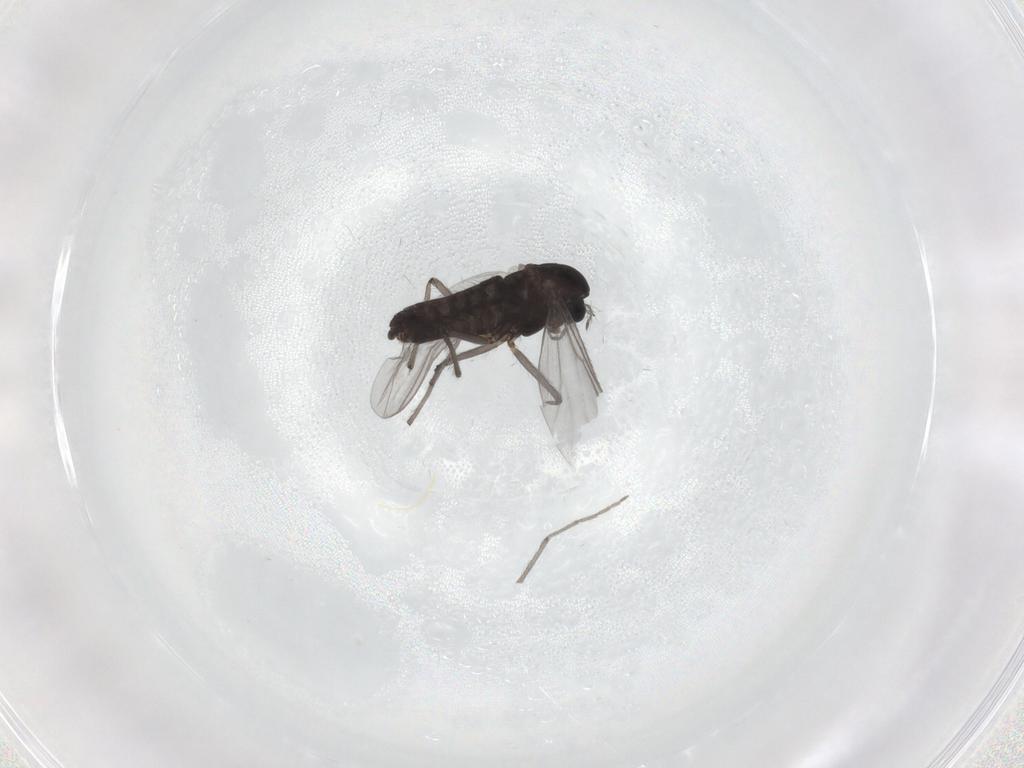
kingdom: Animalia
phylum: Arthropoda
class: Insecta
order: Diptera
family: Chironomidae
